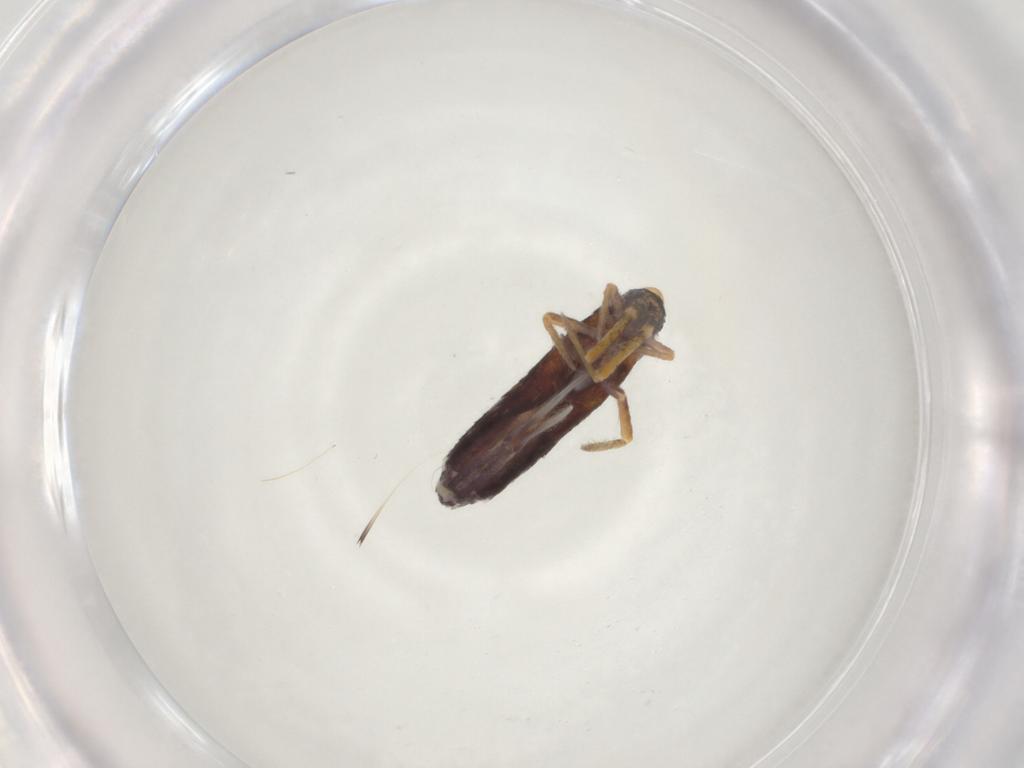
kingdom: Animalia
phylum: Arthropoda
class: Collembola
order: Entomobryomorpha
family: Entomobryidae
